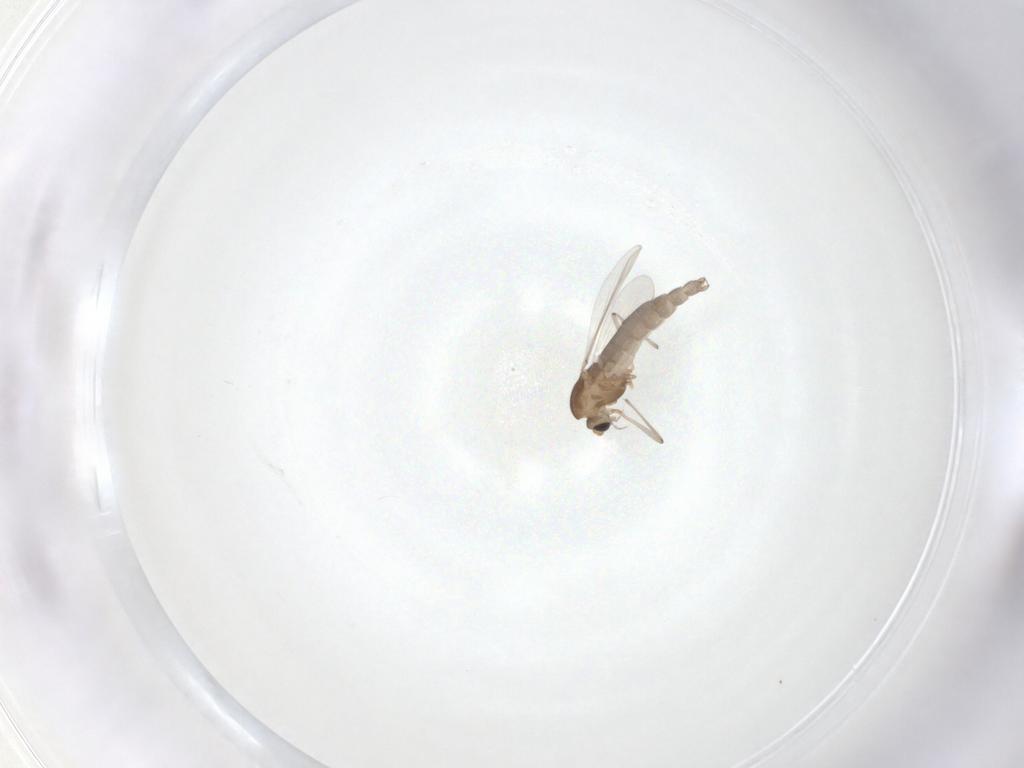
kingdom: Animalia
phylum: Arthropoda
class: Insecta
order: Diptera
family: Chironomidae
